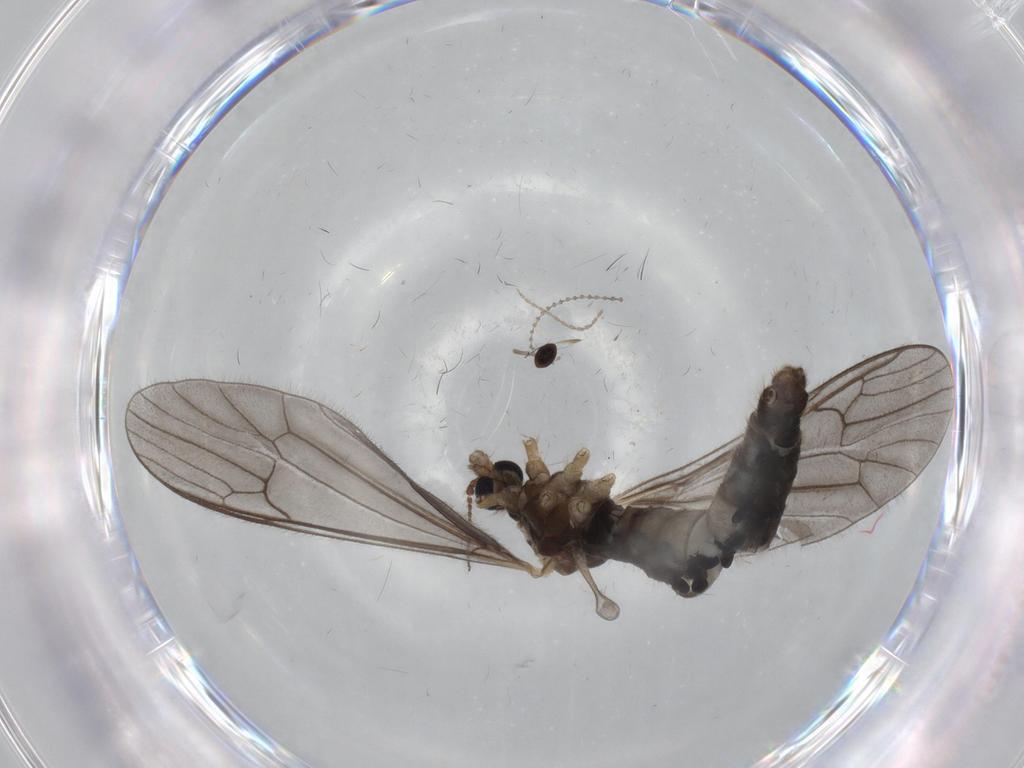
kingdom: Animalia
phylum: Arthropoda
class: Insecta
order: Diptera
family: Limoniidae
